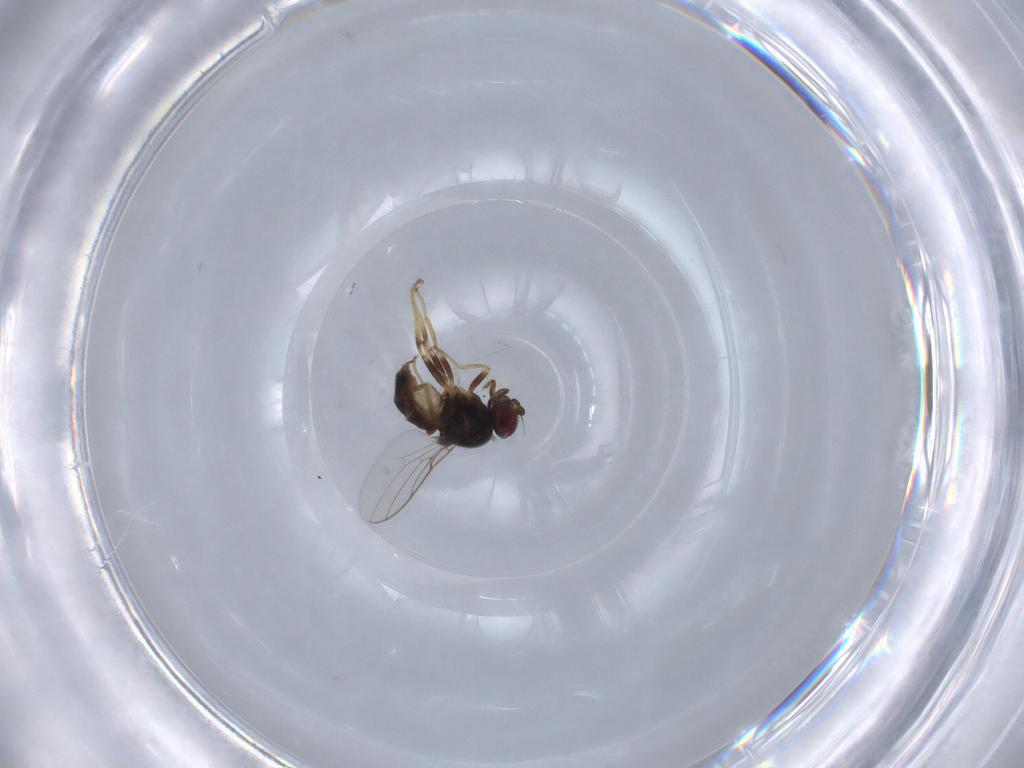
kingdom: Animalia
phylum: Arthropoda
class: Insecta
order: Diptera
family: Chloropidae
